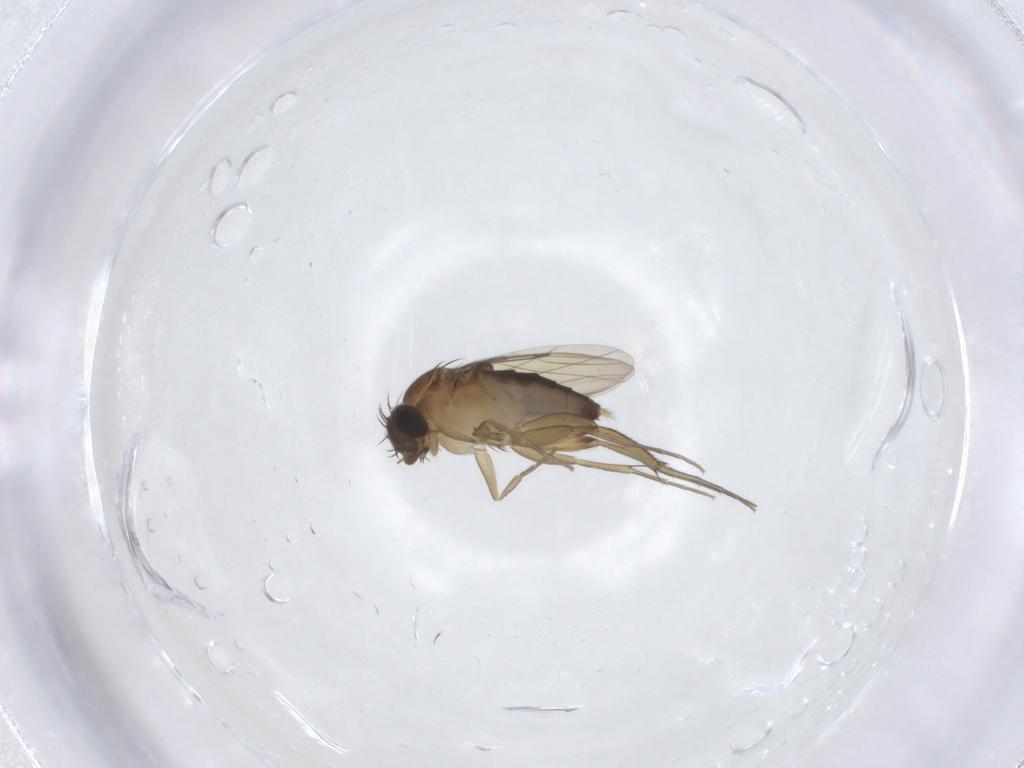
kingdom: Animalia
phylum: Arthropoda
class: Insecta
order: Diptera
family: Phoridae
